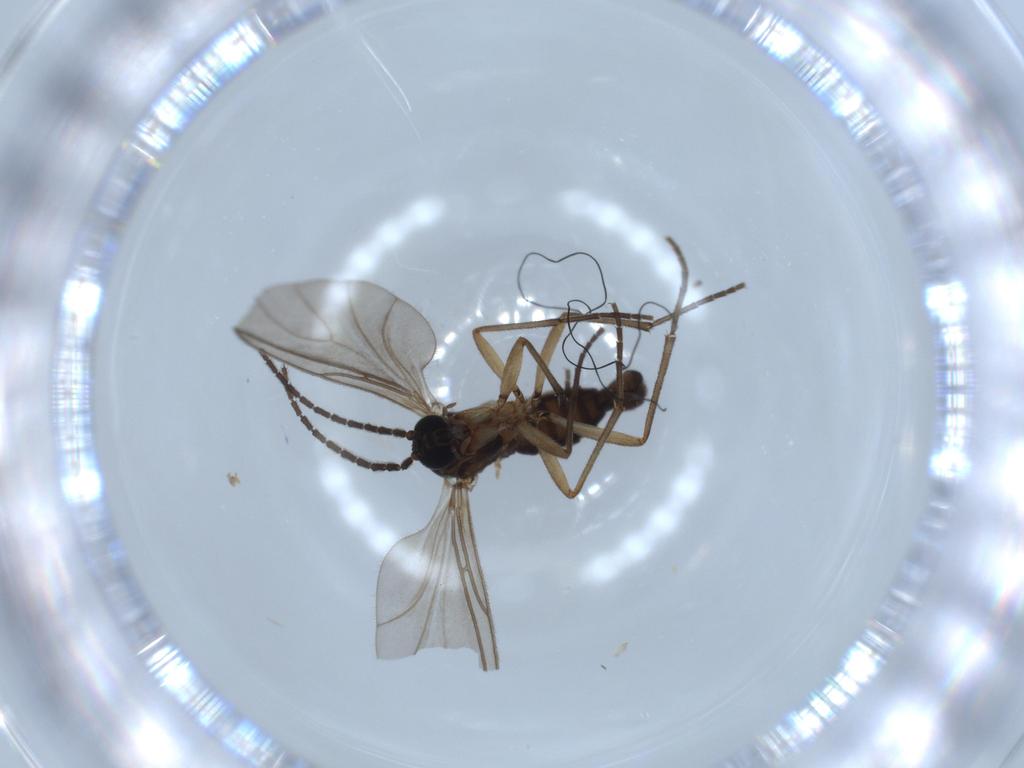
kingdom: Animalia
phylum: Arthropoda
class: Insecta
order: Diptera
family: Sciaridae
